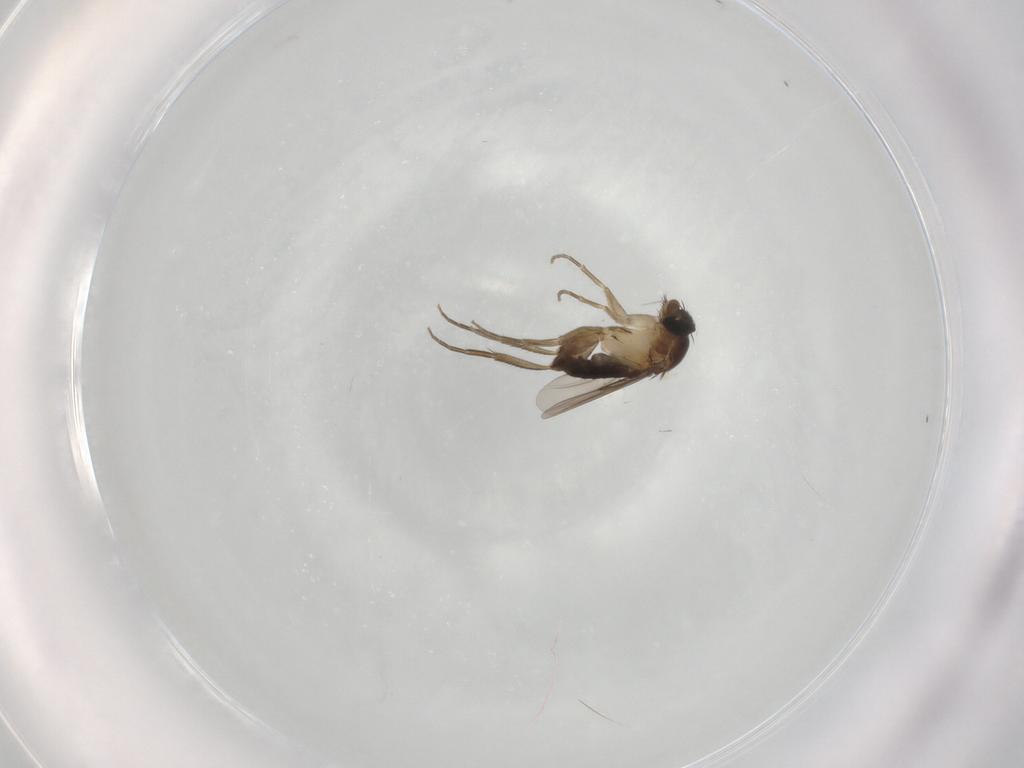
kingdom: Animalia
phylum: Arthropoda
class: Insecta
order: Diptera
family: Phoridae
